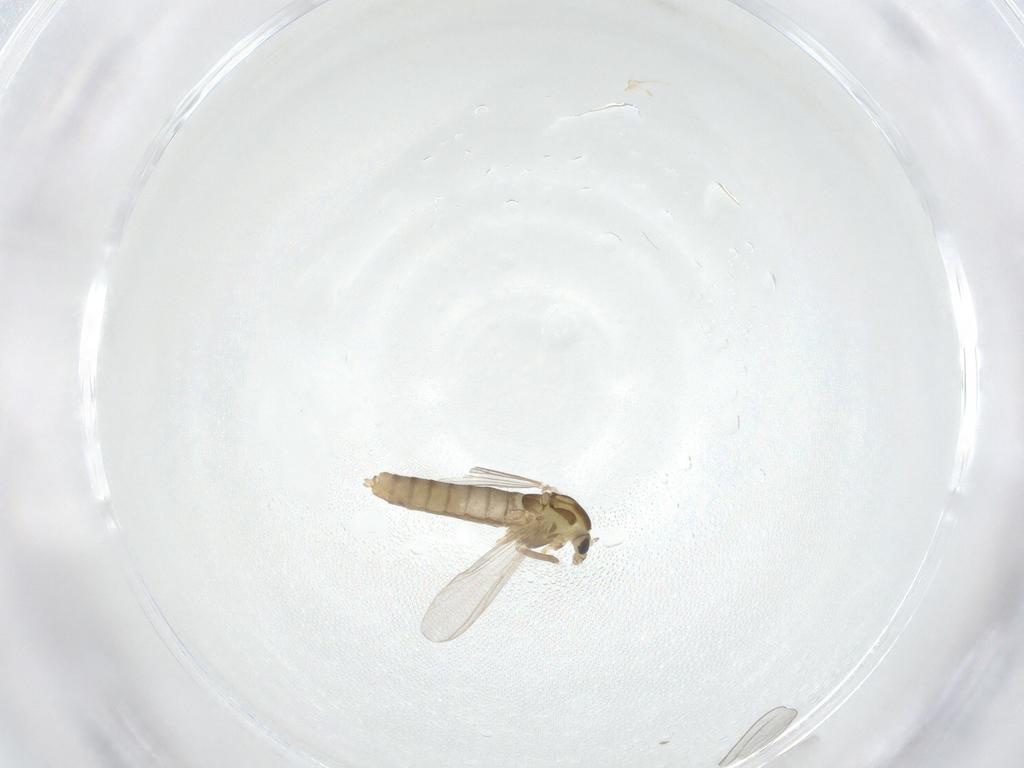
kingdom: Animalia
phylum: Arthropoda
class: Insecta
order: Diptera
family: Chironomidae
